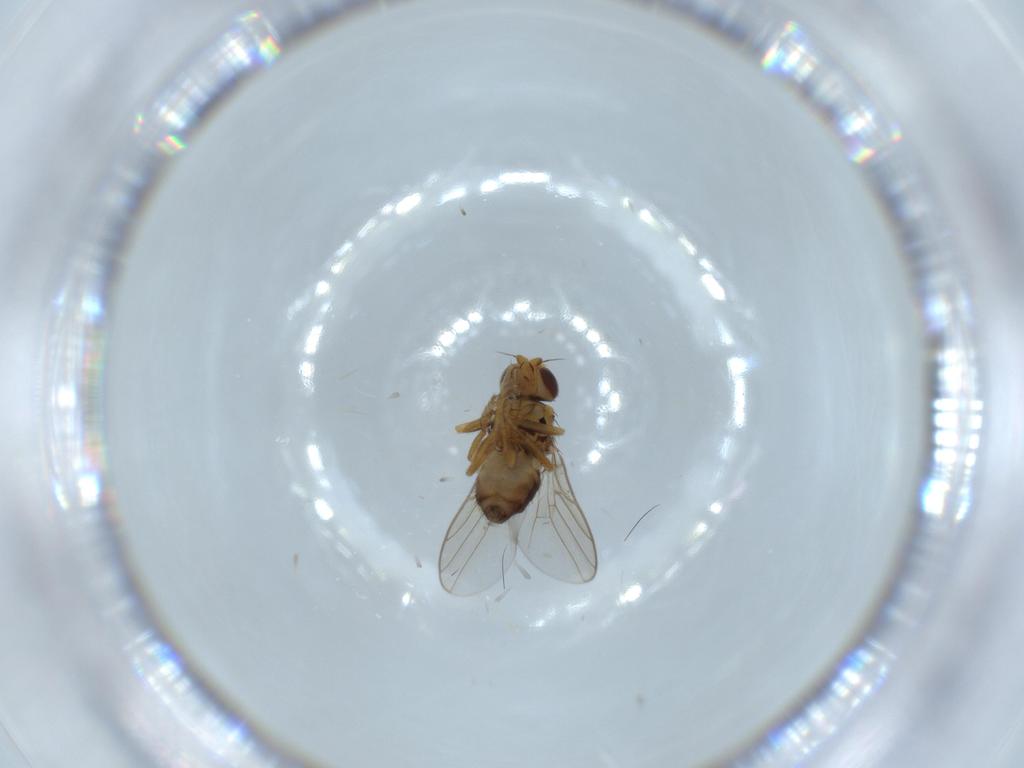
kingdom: Animalia
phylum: Arthropoda
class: Insecta
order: Diptera
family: Chloropidae
